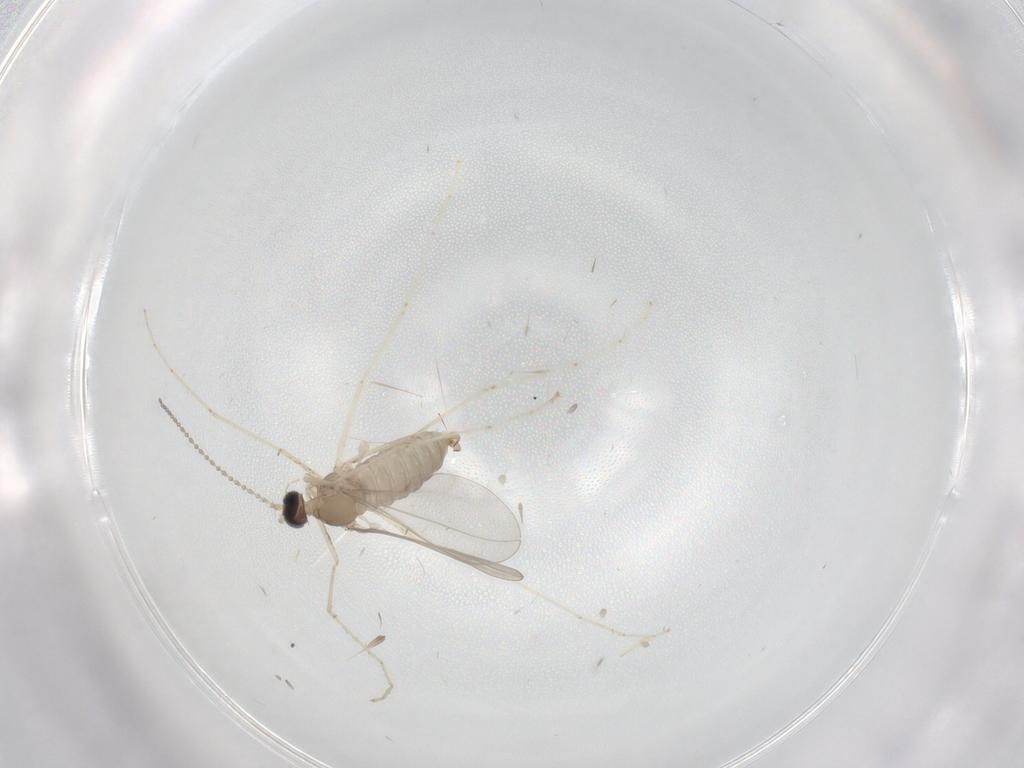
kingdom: Animalia
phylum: Arthropoda
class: Insecta
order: Diptera
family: Cecidomyiidae
